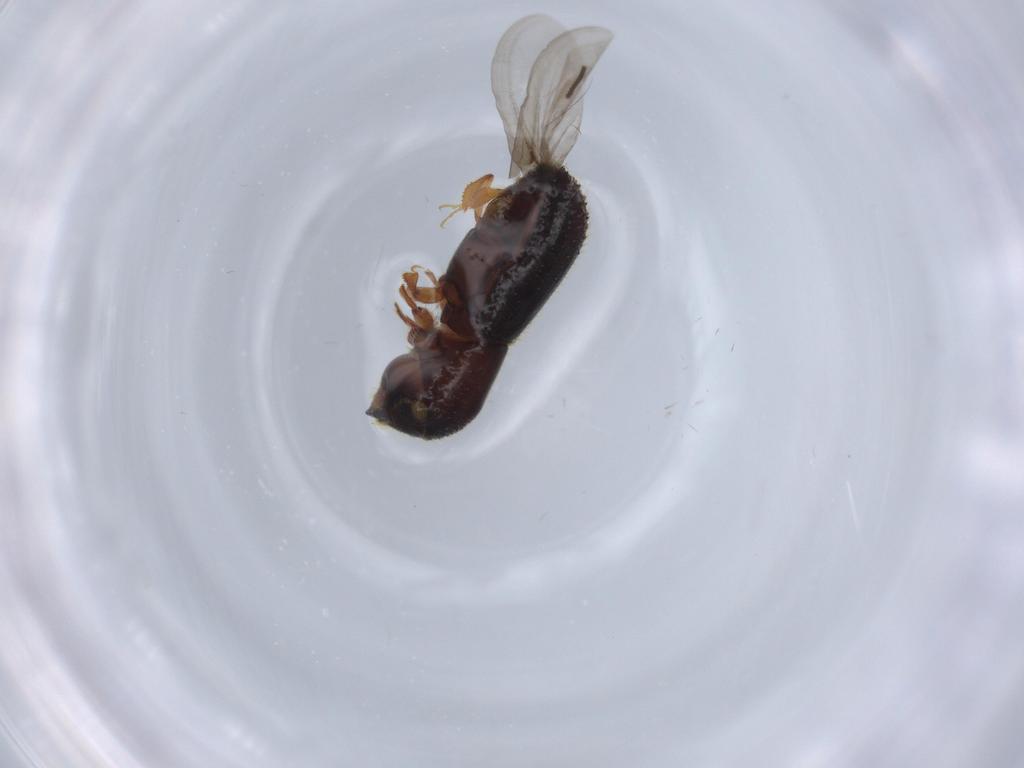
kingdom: Animalia
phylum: Arthropoda
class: Insecta
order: Coleoptera
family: Curculionidae
